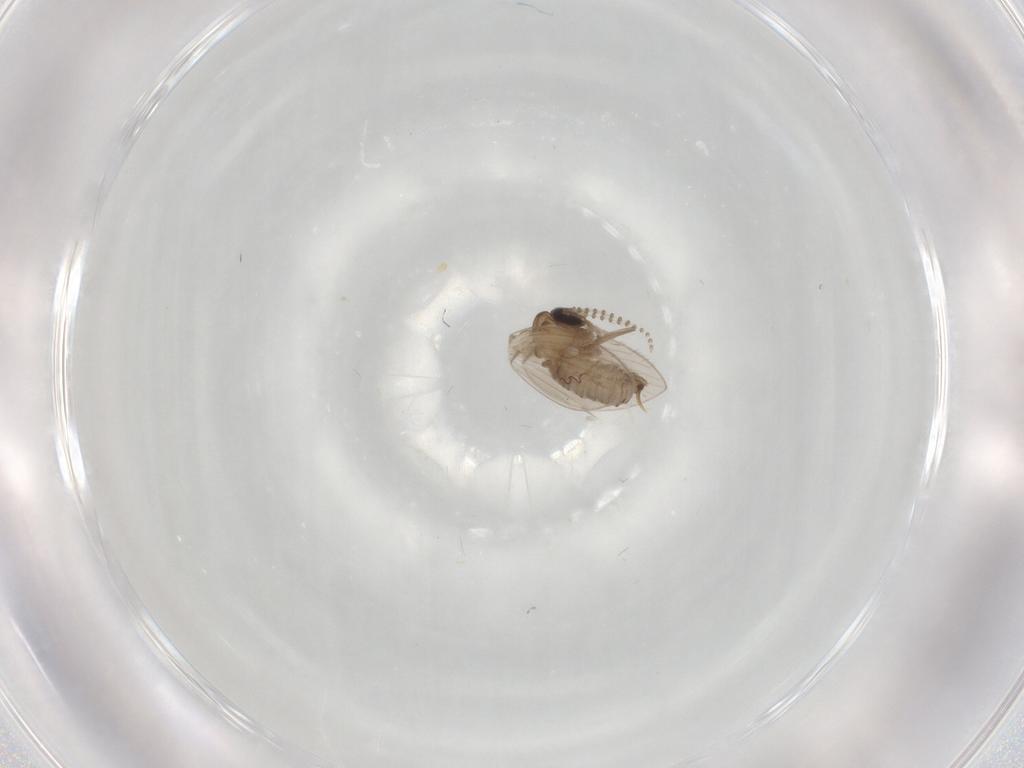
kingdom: Animalia
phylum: Arthropoda
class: Insecta
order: Diptera
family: Psychodidae
